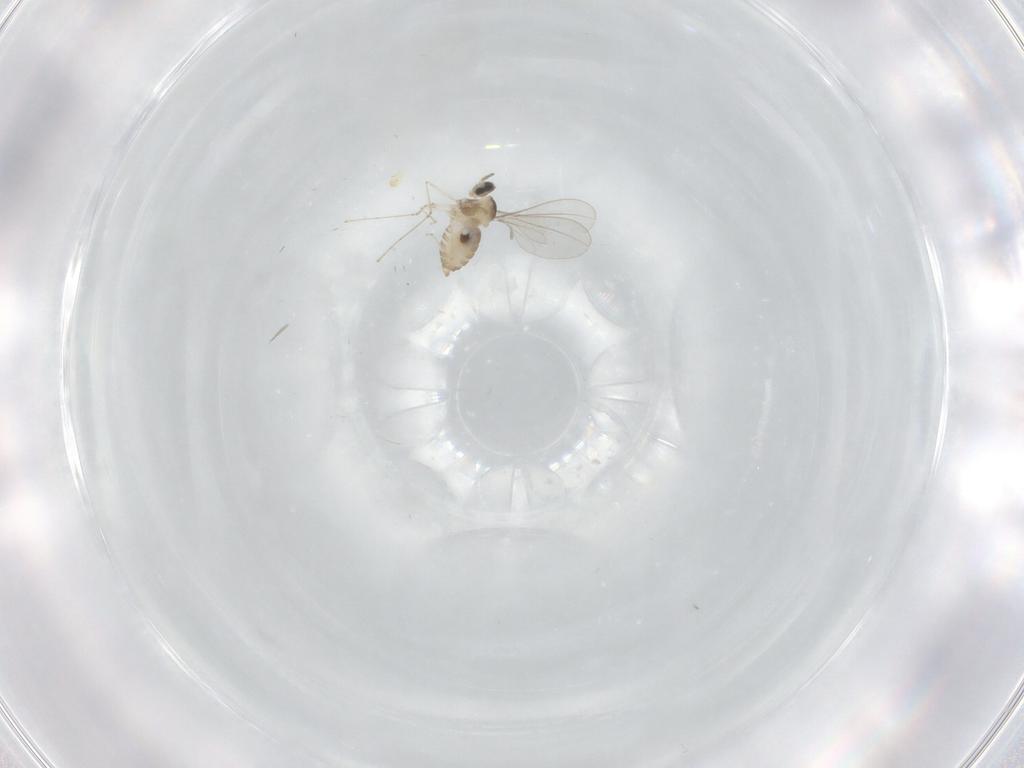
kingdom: Animalia
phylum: Arthropoda
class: Insecta
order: Diptera
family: Cecidomyiidae
